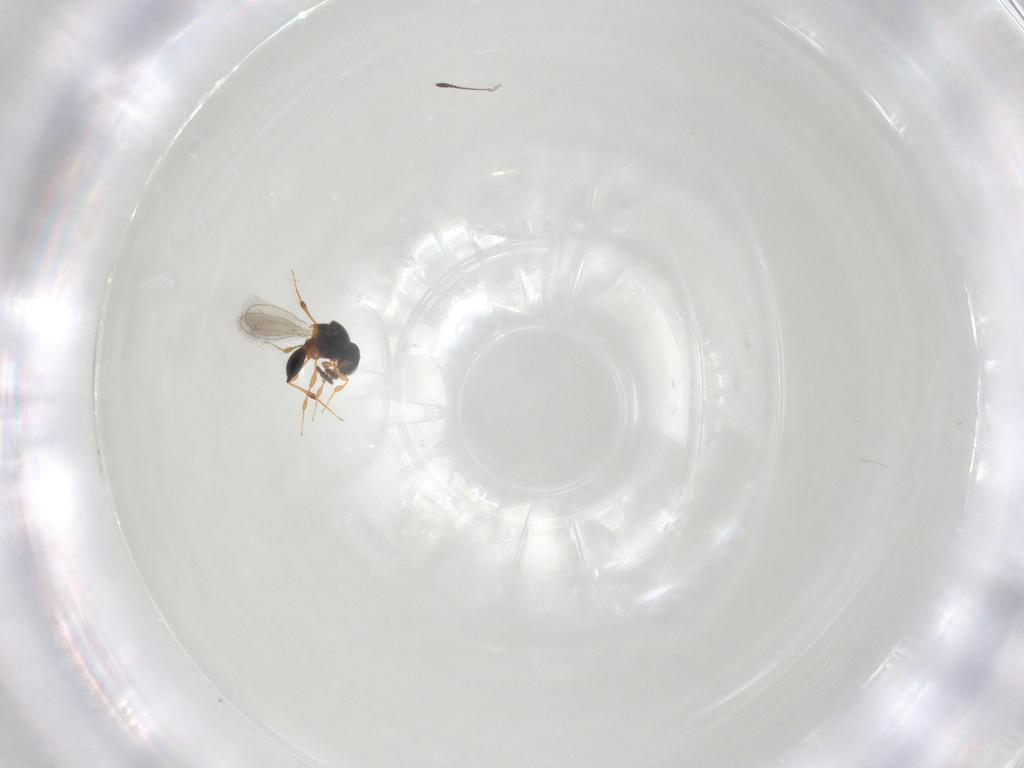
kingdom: Animalia
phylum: Arthropoda
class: Insecta
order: Hymenoptera
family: Platygastridae
